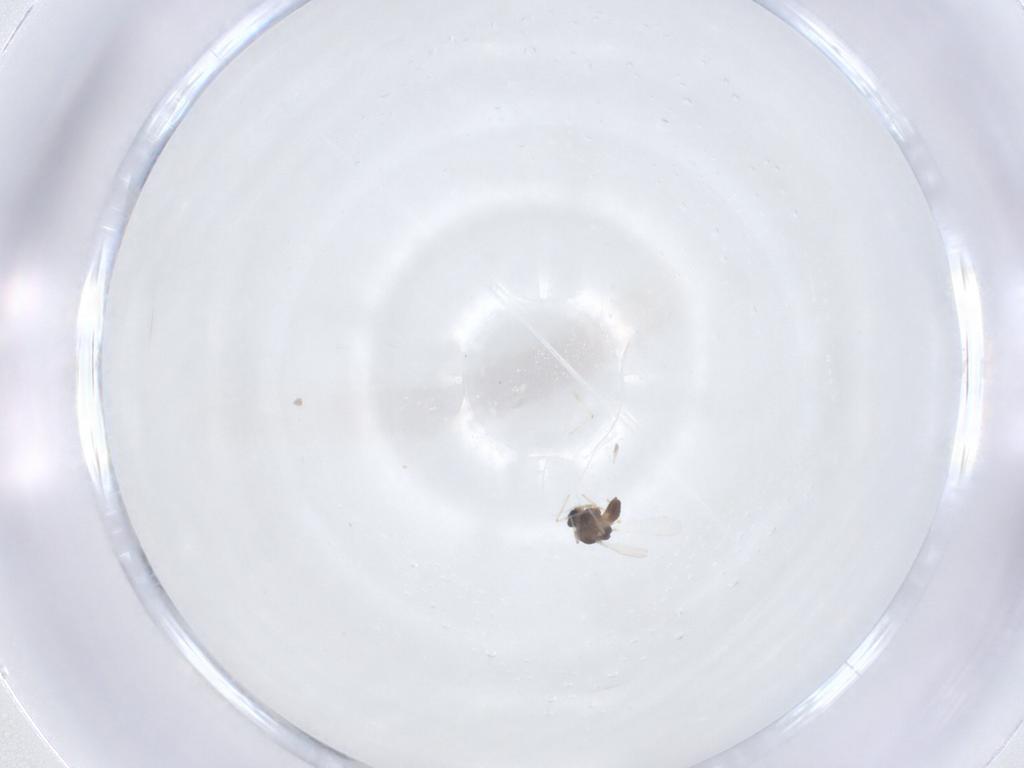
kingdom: Animalia
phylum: Arthropoda
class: Insecta
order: Diptera
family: Chironomidae
